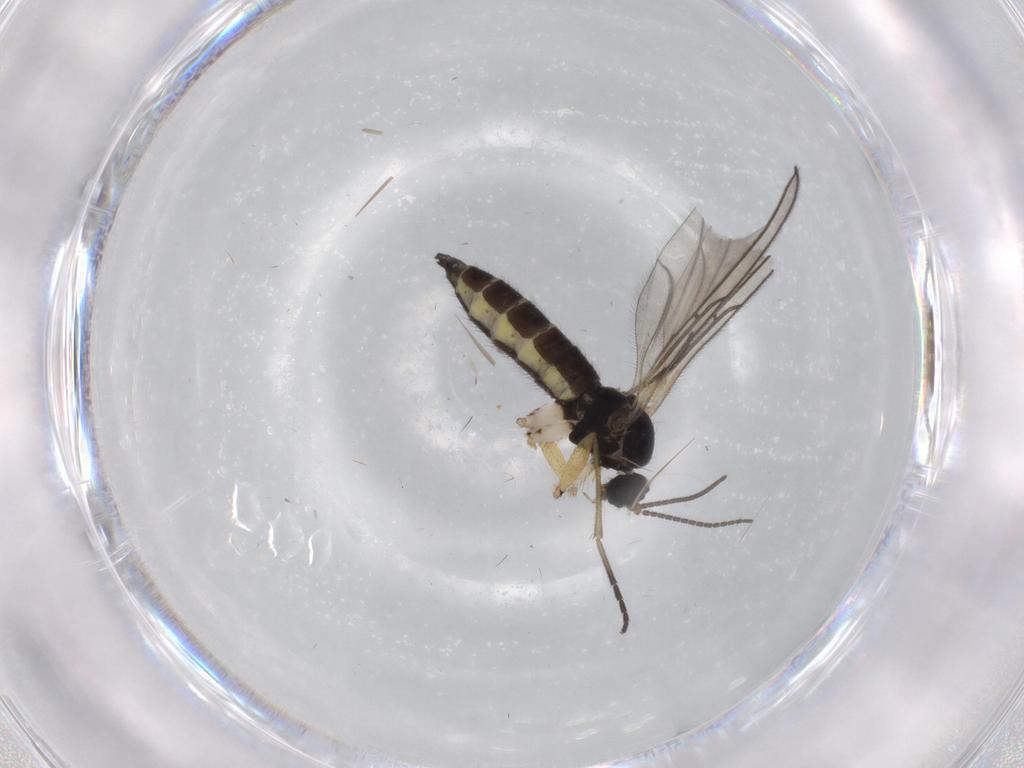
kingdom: Animalia
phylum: Arthropoda
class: Insecta
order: Diptera
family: Sciaridae
